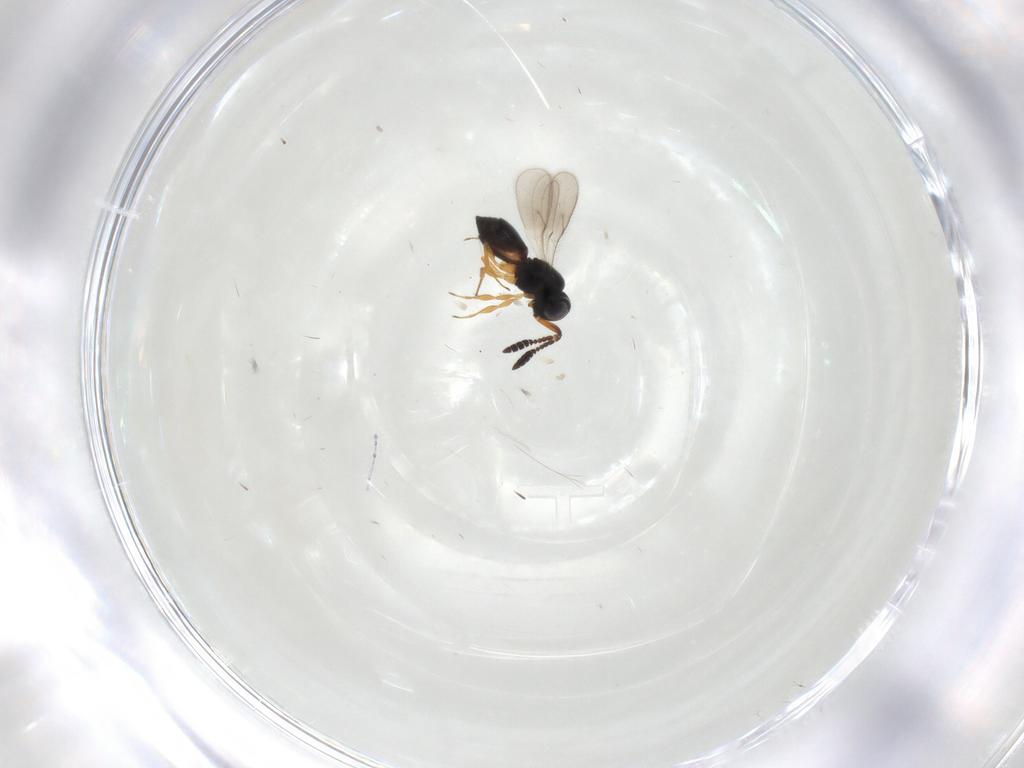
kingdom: Animalia
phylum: Arthropoda
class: Insecta
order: Hymenoptera
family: Scelionidae
